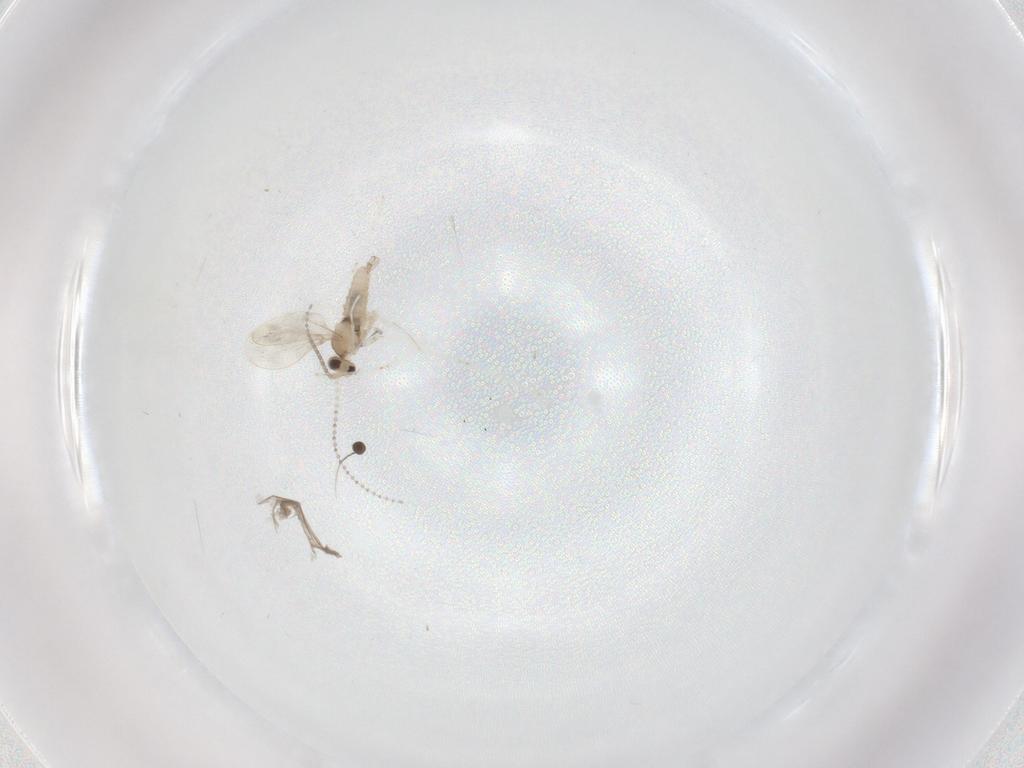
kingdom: Animalia
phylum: Arthropoda
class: Insecta
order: Diptera
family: Cecidomyiidae
